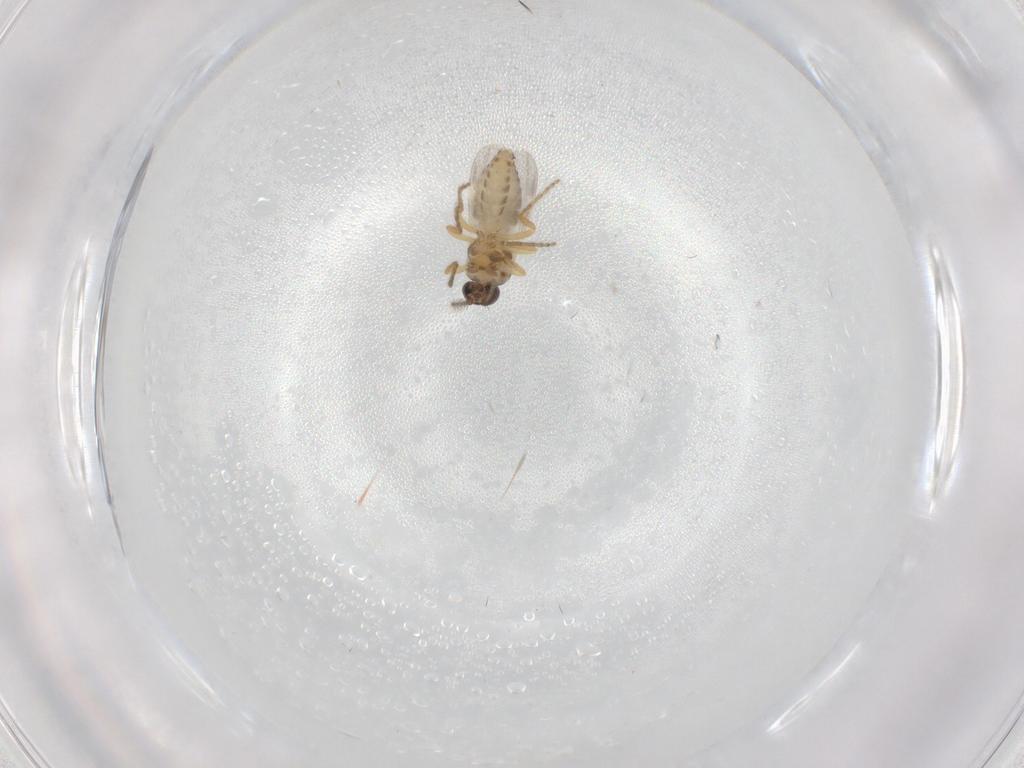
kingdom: Animalia
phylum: Arthropoda
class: Insecta
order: Diptera
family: Ceratopogonidae
